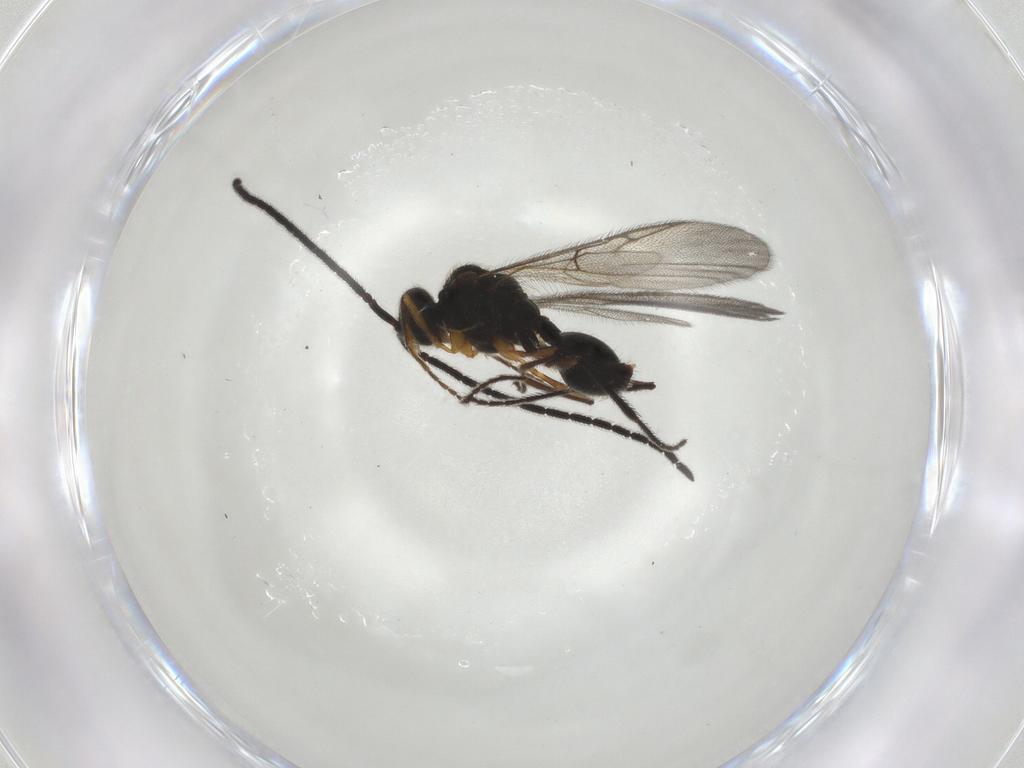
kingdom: Animalia
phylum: Arthropoda
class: Insecta
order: Hymenoptera
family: Diapriidae
